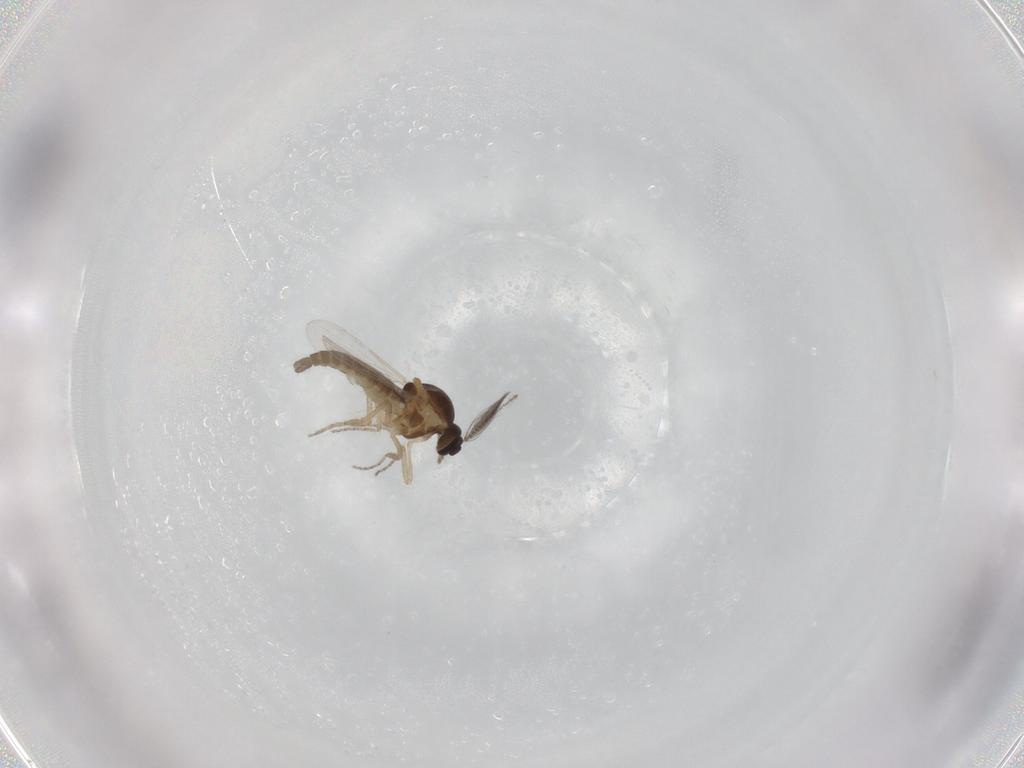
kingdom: Animalia
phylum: Arthropoda
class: Insecta
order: Diptera
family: Ceratopogonidae
